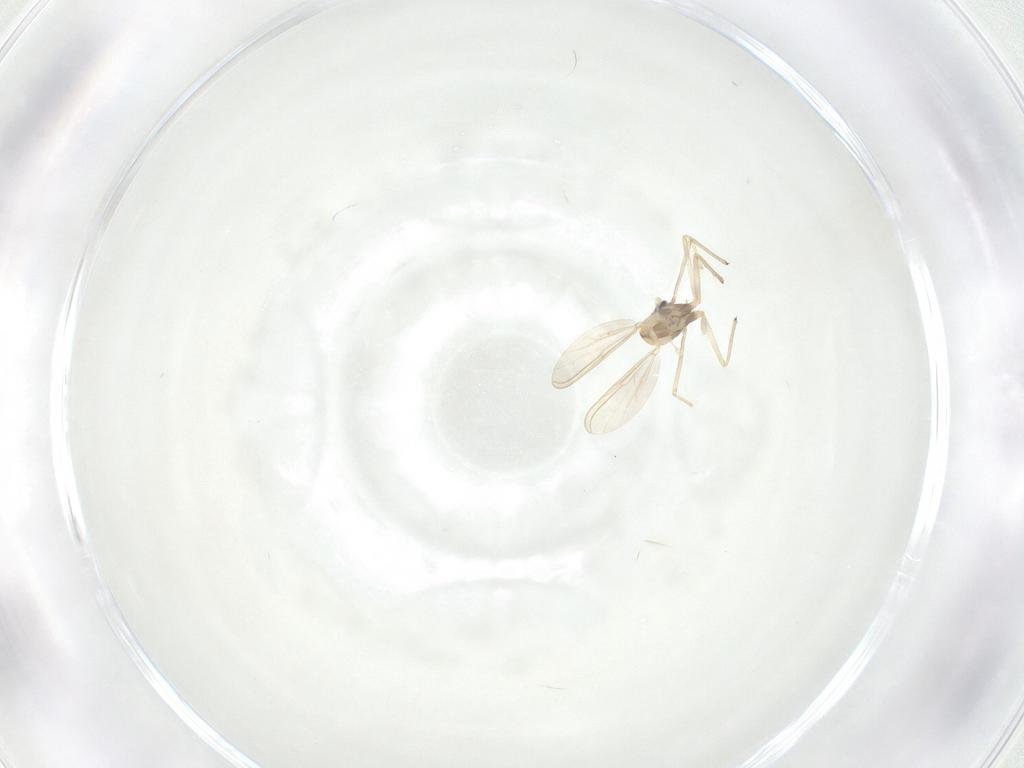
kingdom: Animalia
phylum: Arthropoda
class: Insecta
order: Diptera
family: Chironomidae
